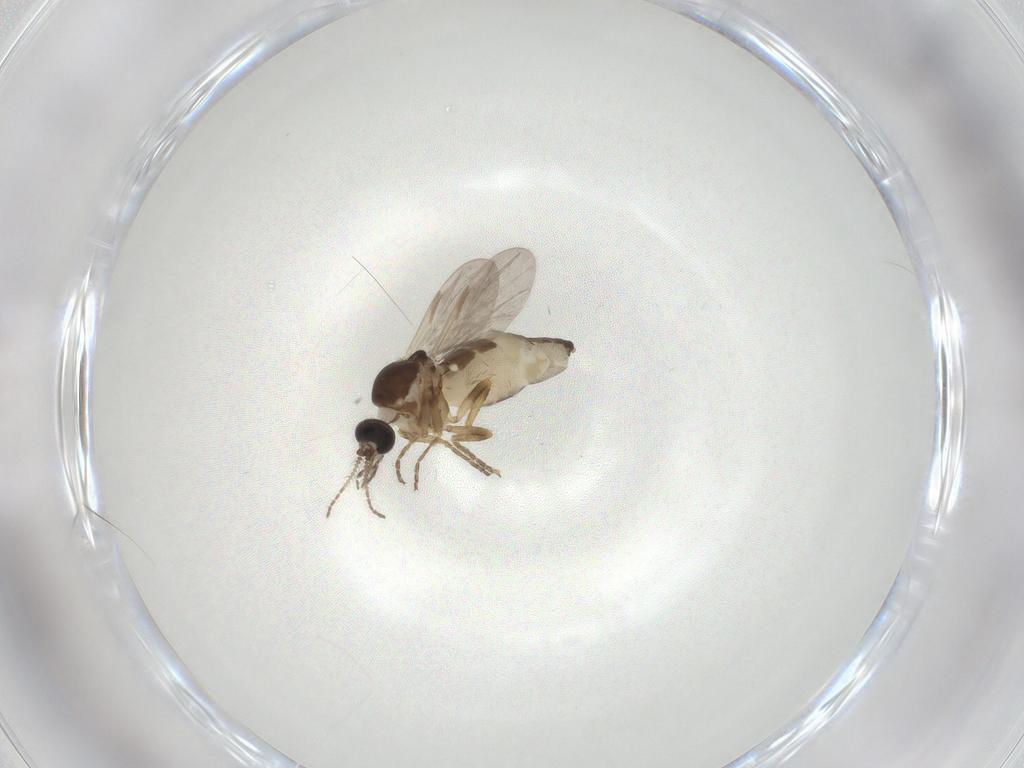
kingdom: Animalia
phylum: Arthropoda
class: Insecta
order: Diptera
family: Ceratopogonidae
